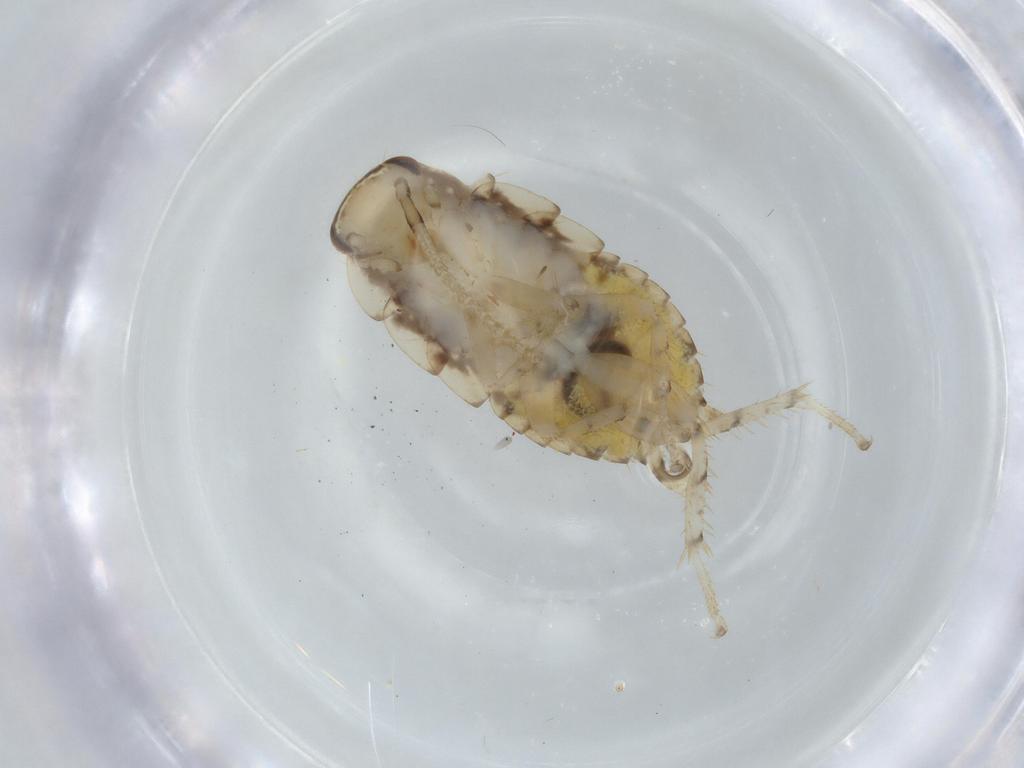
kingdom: Animalia
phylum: Arthropoda
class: Insecta
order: Blattodea
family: Ectobiidae
